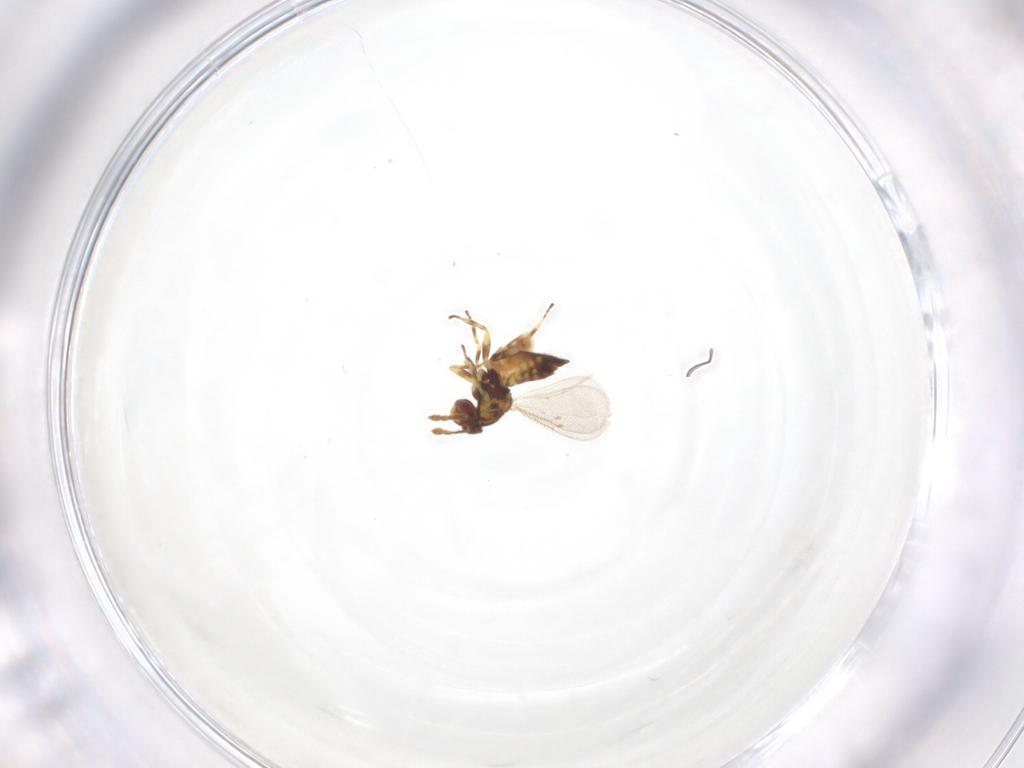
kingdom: Animalia
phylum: Arthropoda
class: Insecta
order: Hymenoptera
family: Eulophidae
